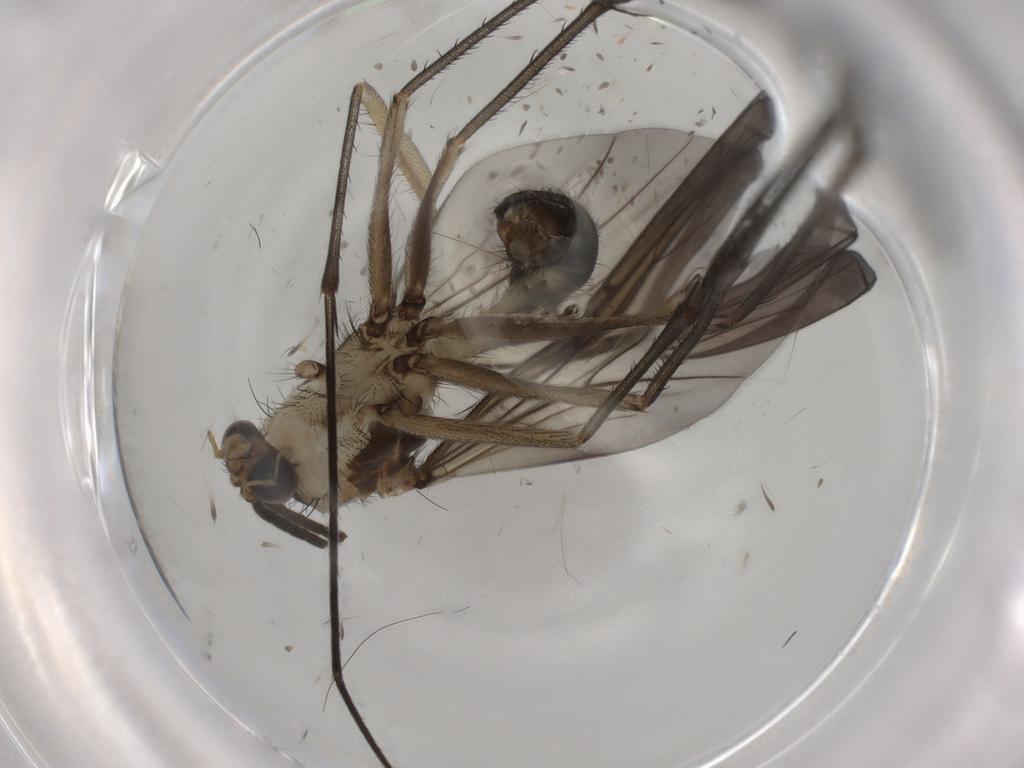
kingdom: Animalia
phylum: Arthropoda
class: Insecta
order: Diptera
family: Mycetophilidae
